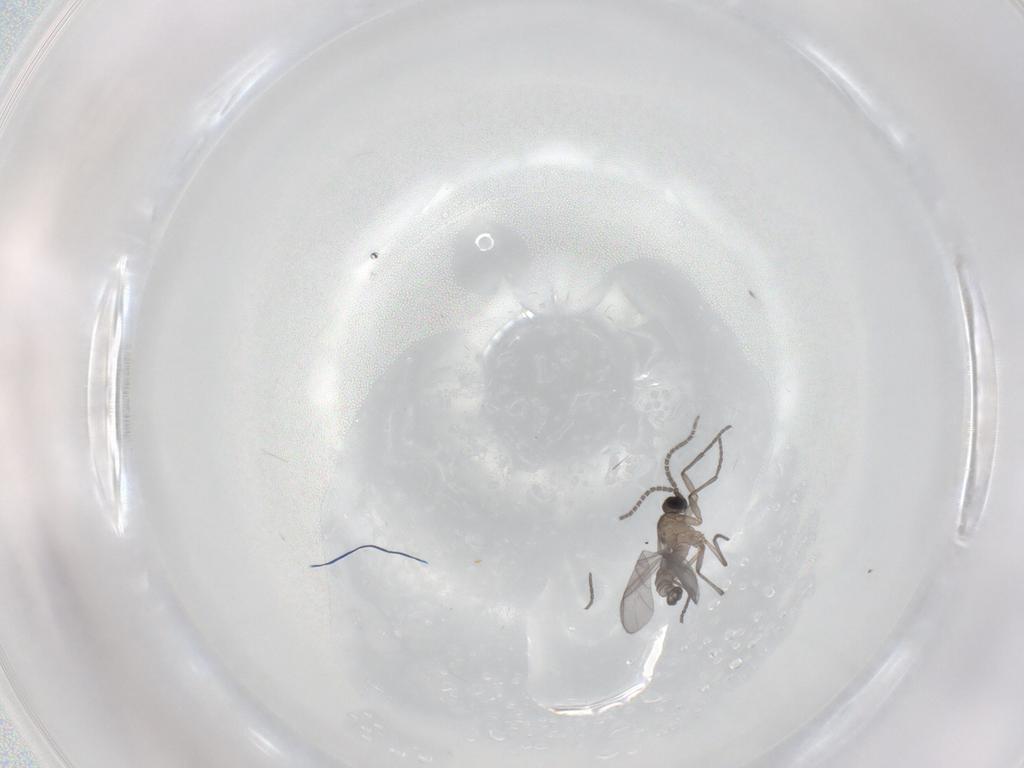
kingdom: Animalia
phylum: Arthropoda
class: Insecta
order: Diptera
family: Sciaridae
